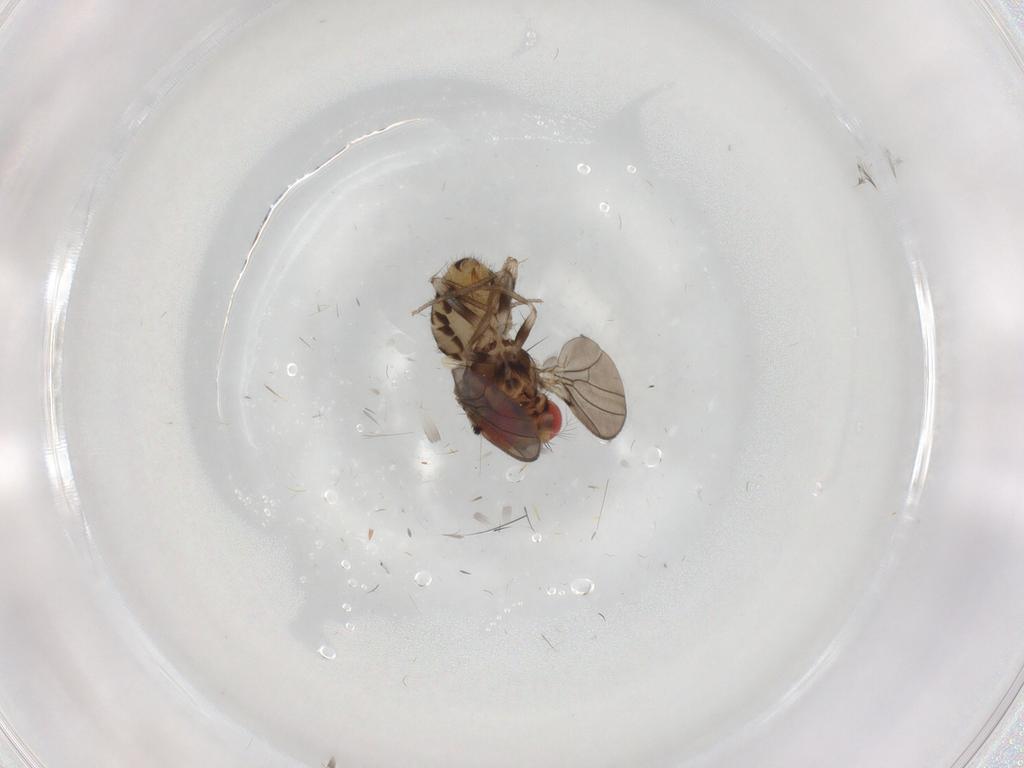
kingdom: Animalia
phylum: Arthropoda
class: Insecta
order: Diptera
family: Drosophilidae
